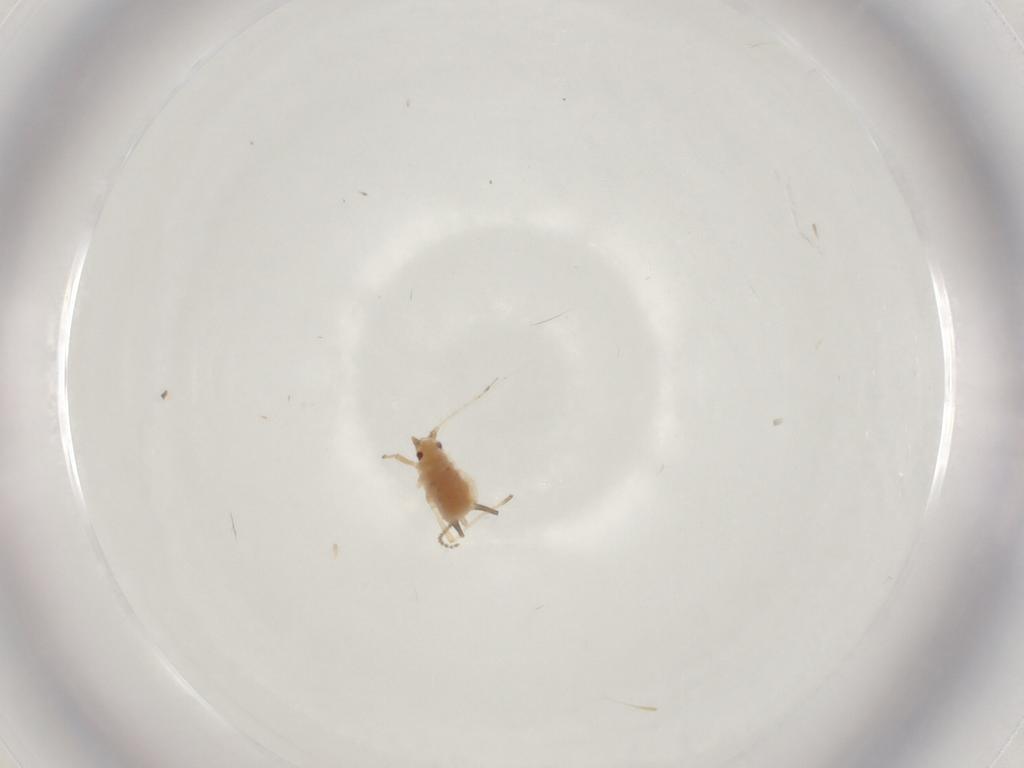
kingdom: Animalia
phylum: Arthropoda
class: Insecta
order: Hemiptera
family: Aphididae
